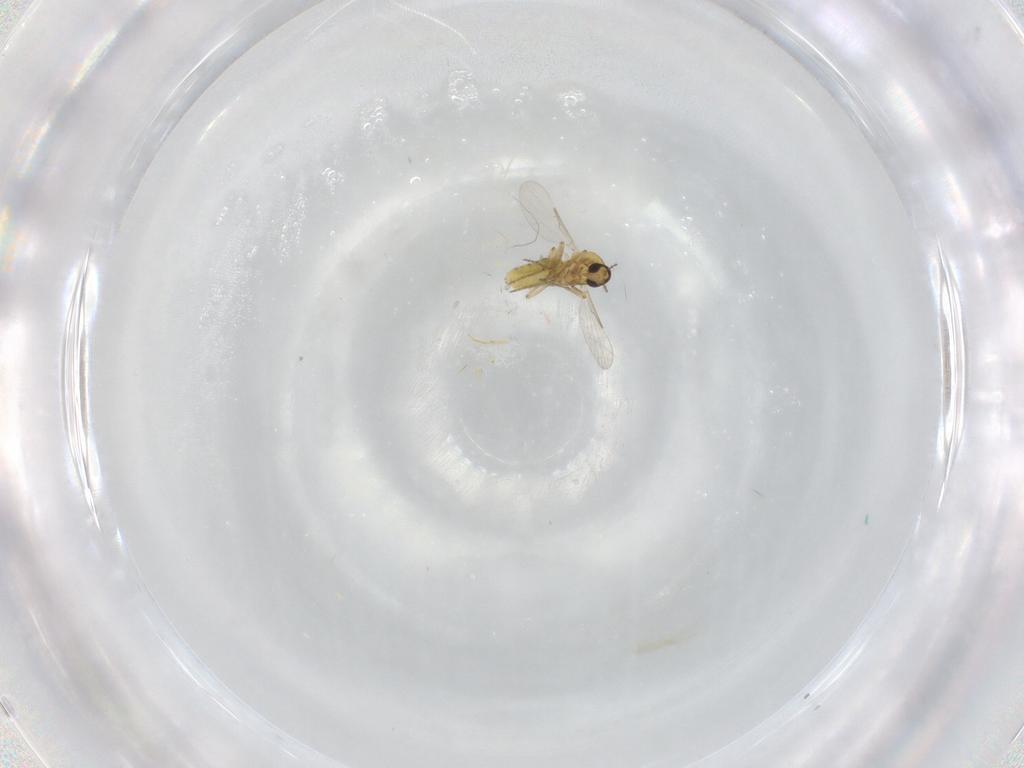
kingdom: Animalia
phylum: Arthropoda
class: Insecta
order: Diptera
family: Ceratopogonidae
